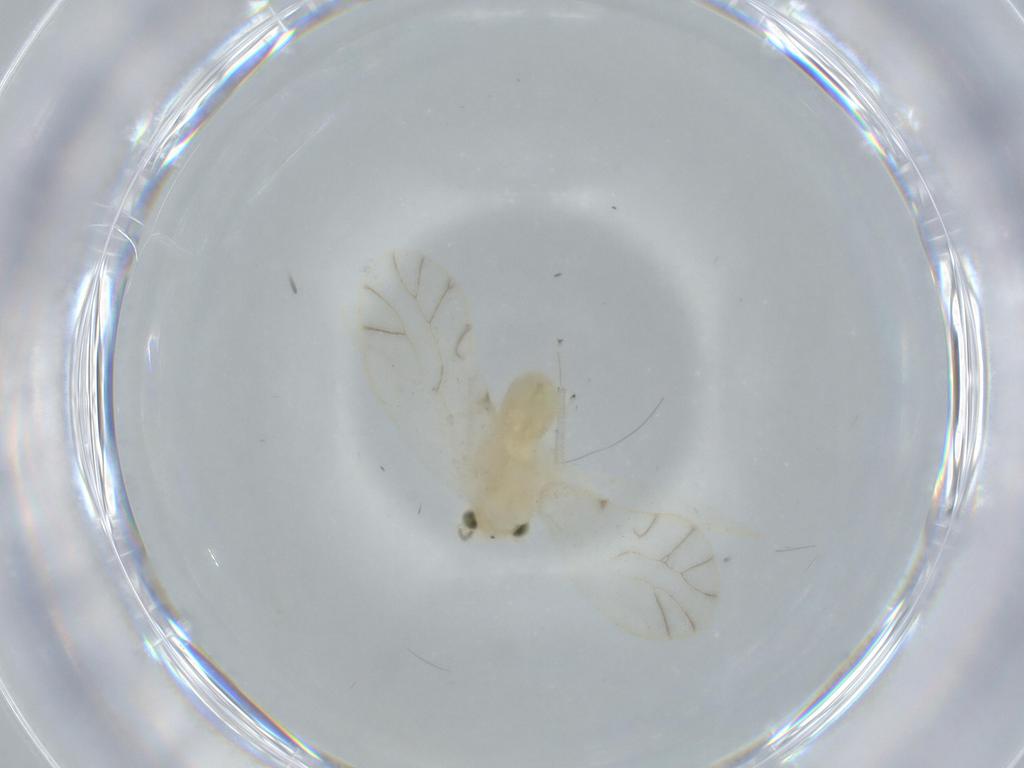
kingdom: Animalia
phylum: Arthropoda
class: Insecta
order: Psocodea
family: Caeciliusidae
